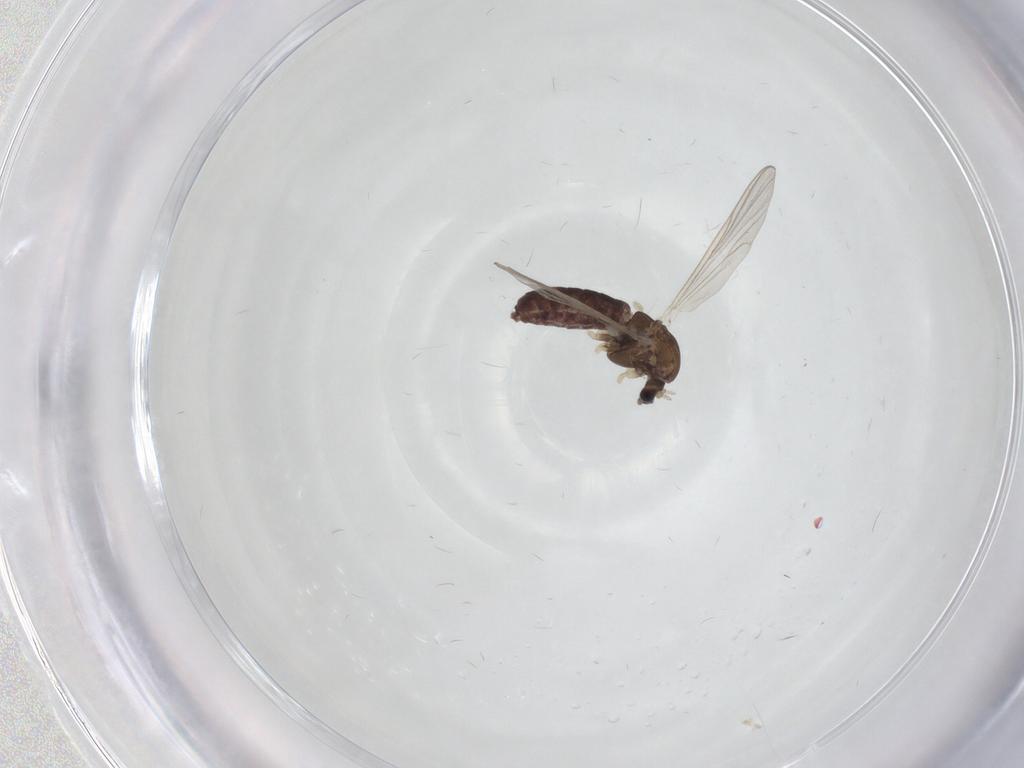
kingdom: Animalia
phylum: Arthropoda
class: Insecta
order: Diptera
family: Chironomidae
